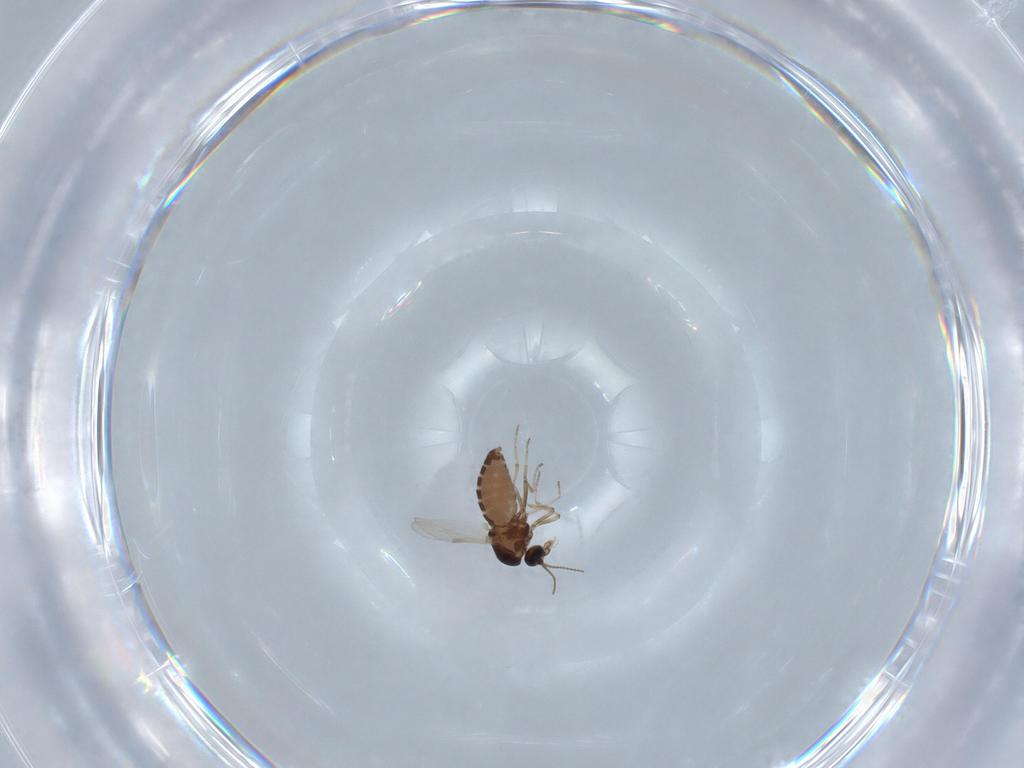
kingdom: Animalia
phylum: Arthropoda
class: Insecta
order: Diptera
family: Ceratopogonidae
